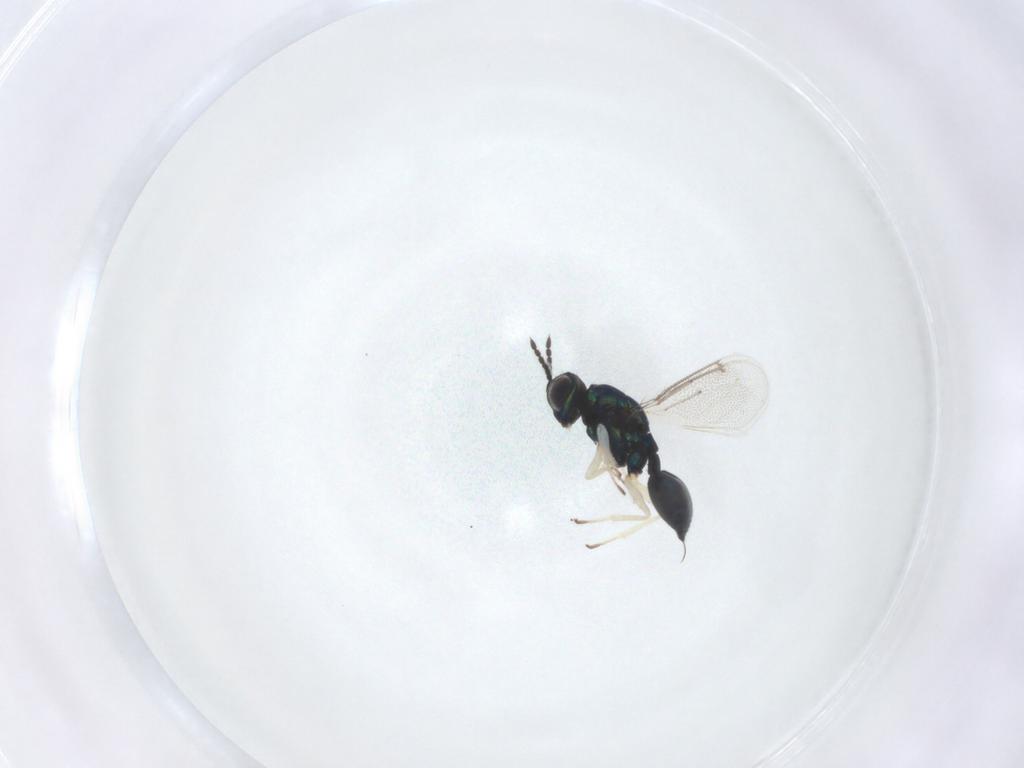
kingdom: Animalia
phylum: Arthropoda
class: Insecta
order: Hymenoptera
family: Eulophidae
